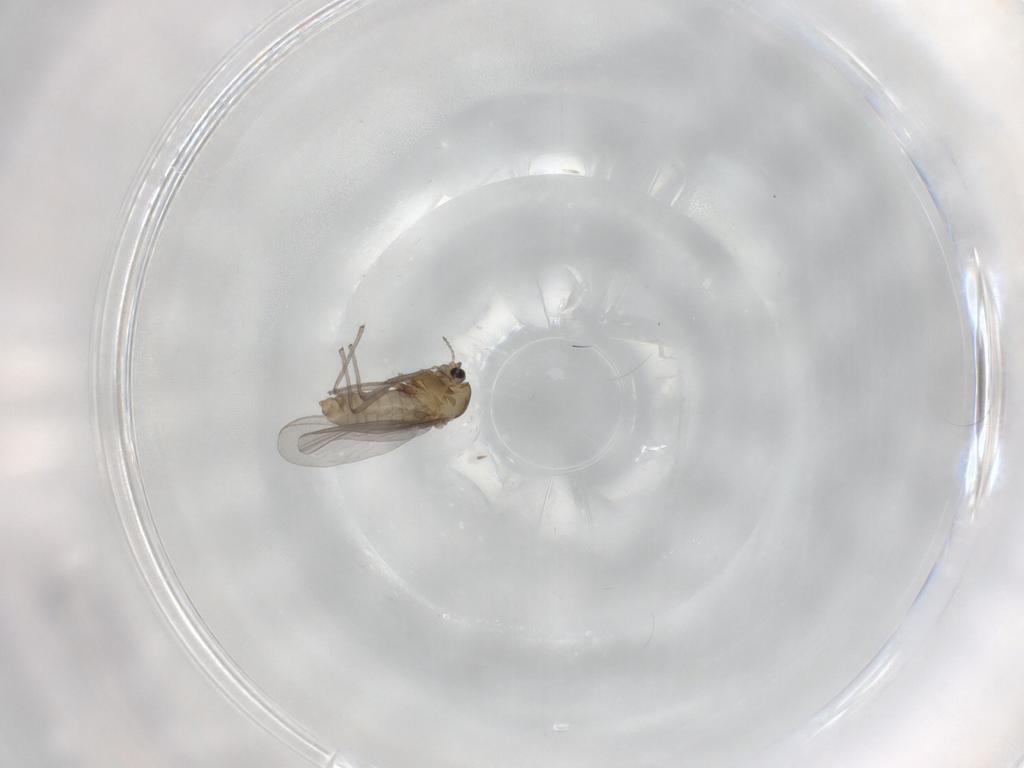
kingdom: Animalia
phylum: Arthropoda
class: Insecta
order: Diptera
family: Chironomidae
